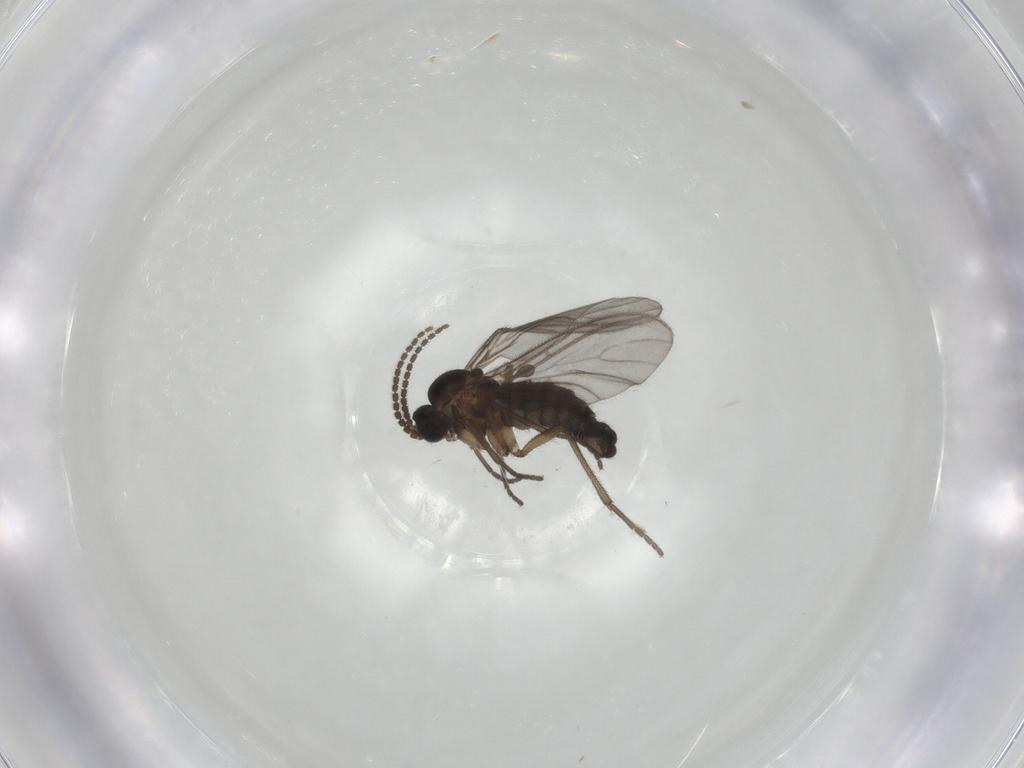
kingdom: Animalia
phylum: Arthropoda
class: Insecta
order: Diptera
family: Sciaridae
